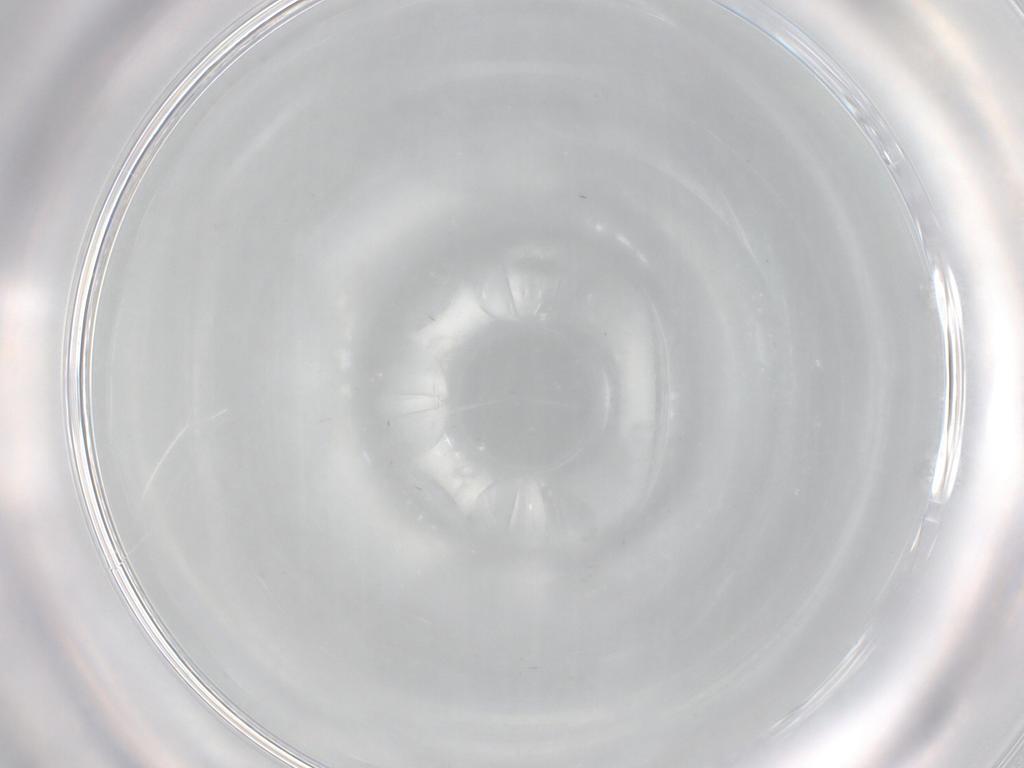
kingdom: Animalia
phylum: Arthropoda
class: Insecta
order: Diptera
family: Psychodidae
